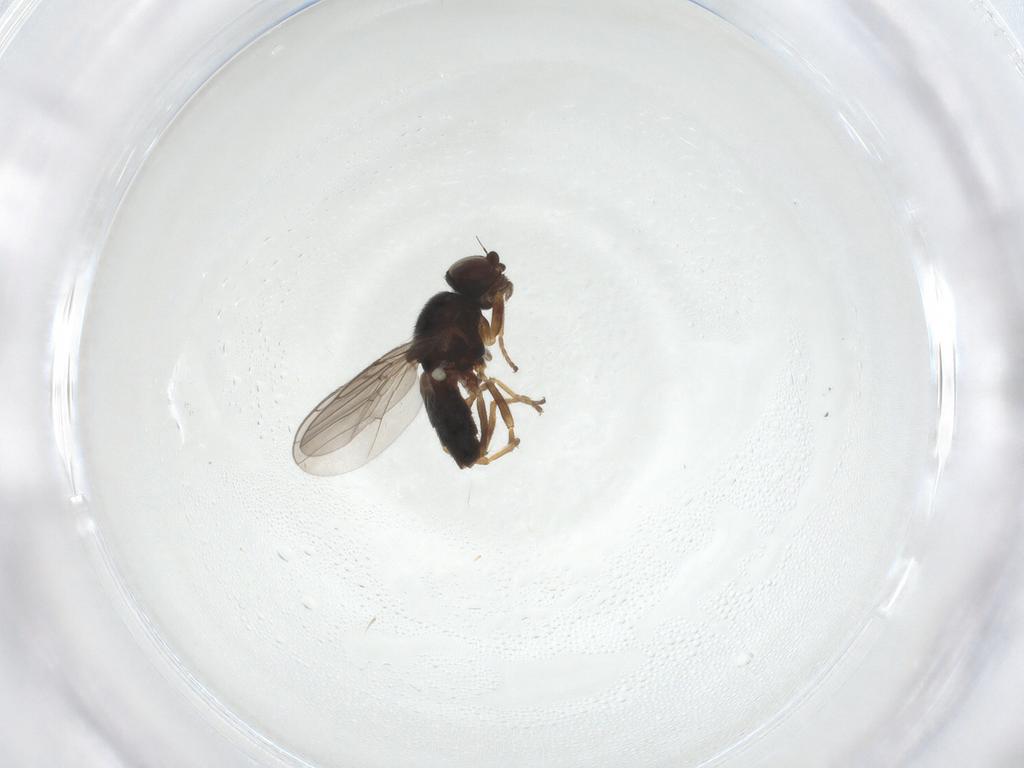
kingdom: Animalia
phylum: Arthropoda
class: Insecta
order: Diptera
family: Chloropidae
